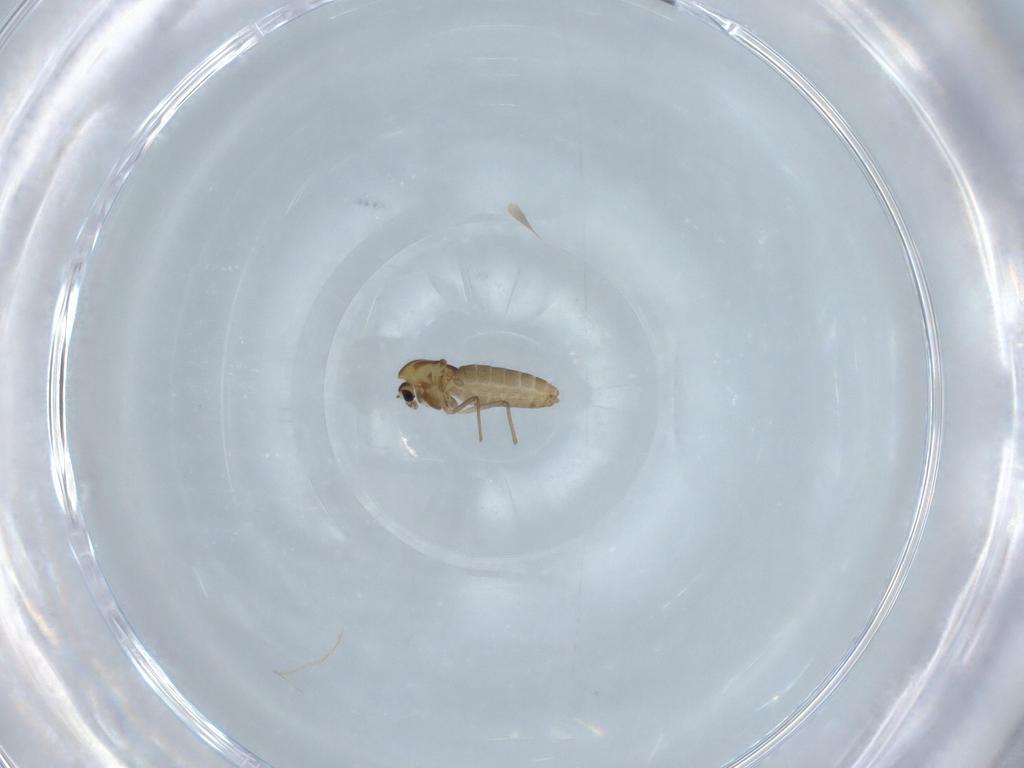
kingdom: Animalia
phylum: Arthropoda
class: Insecta
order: Diptera
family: Chironomidae
